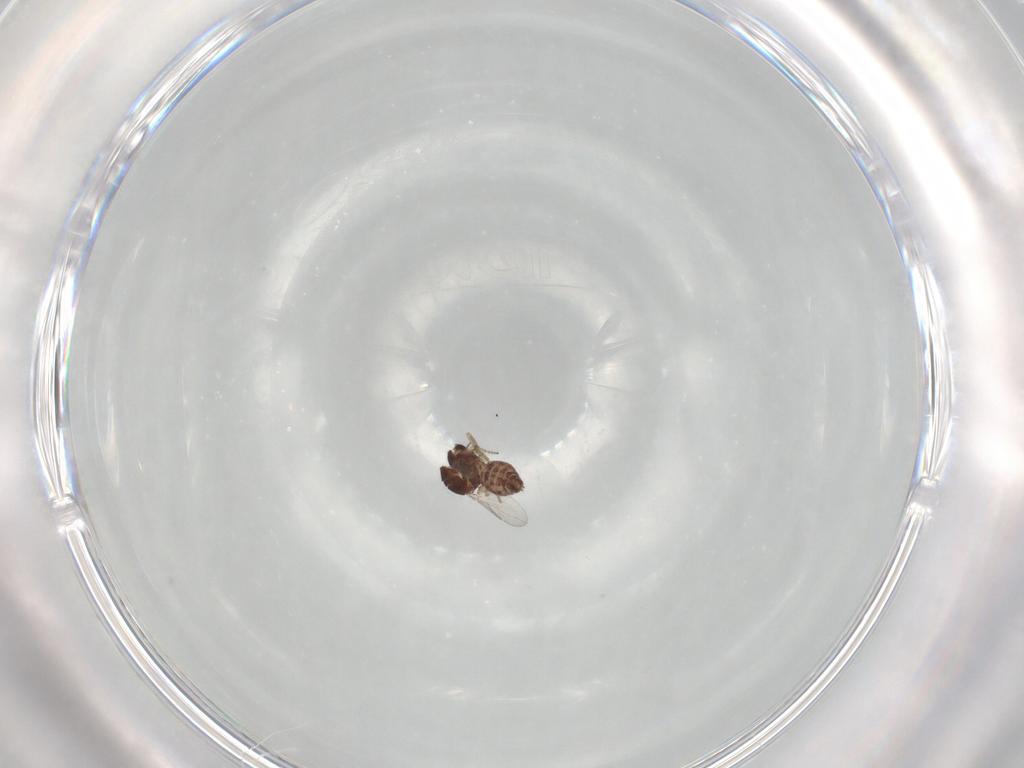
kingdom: Animalia
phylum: Arthropoda
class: Insecta
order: Diptera
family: Ceratopogonidae
